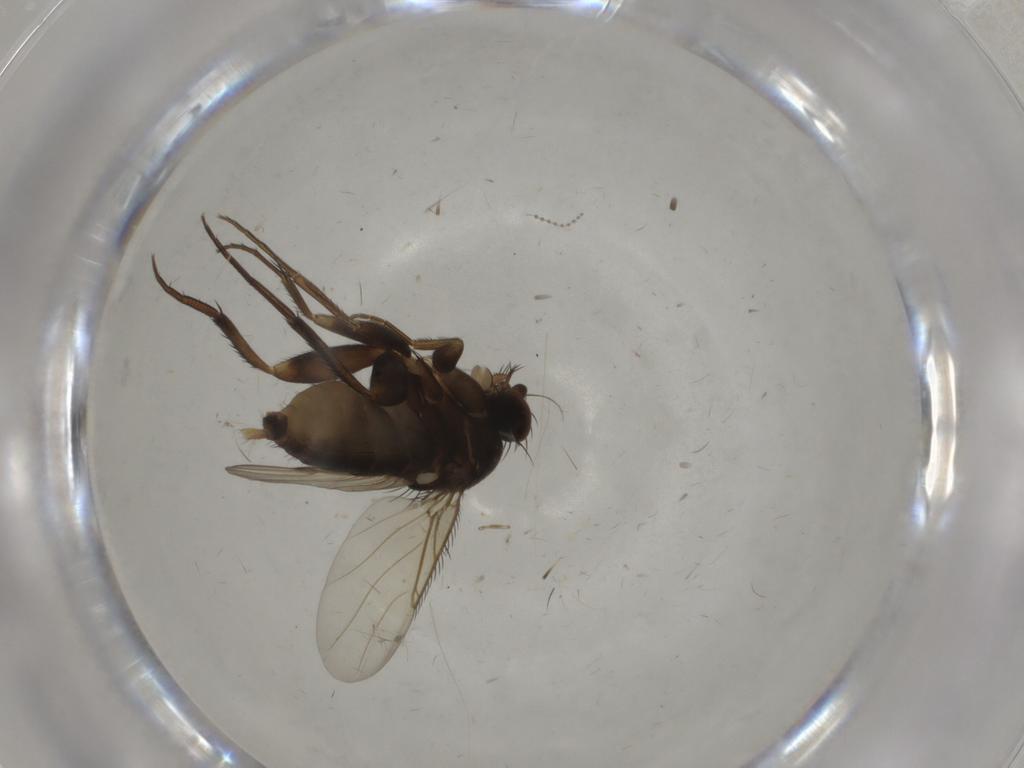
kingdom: Animalia
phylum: Arthropoda
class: Insecta
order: Diptera
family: Phoridae
